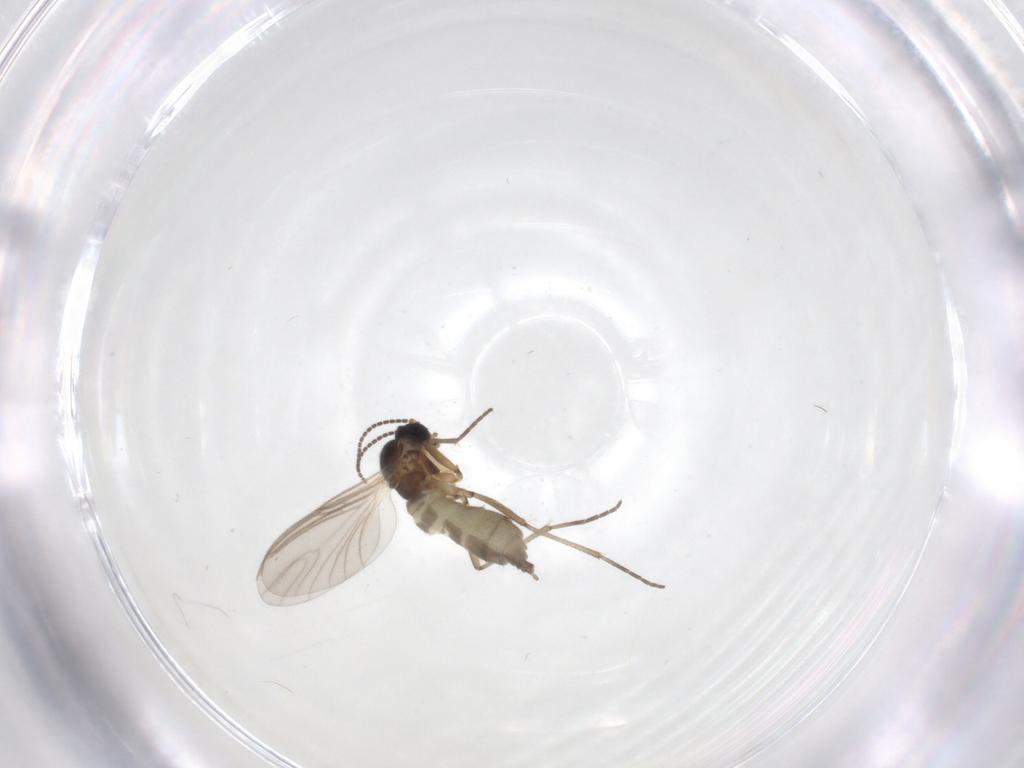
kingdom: Animalia
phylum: Arthropoda
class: Insecta
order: Diptera
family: Sciaridae
